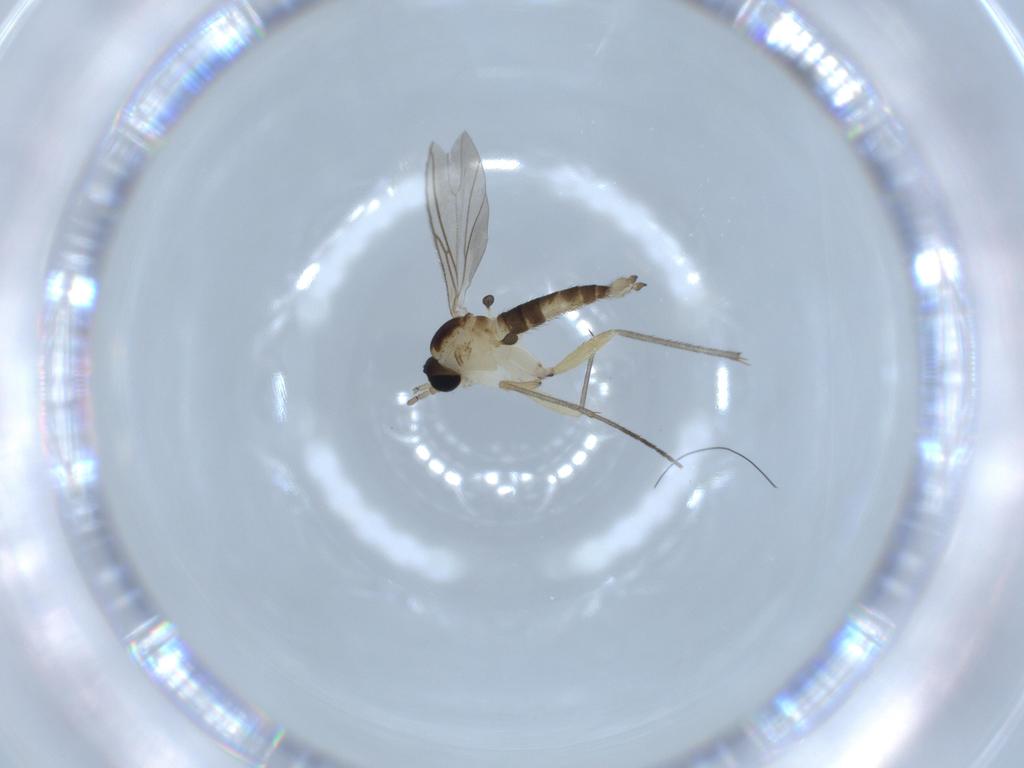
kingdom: Animalia
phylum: Arthropoda
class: Insecta
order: Diptera
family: Sciaridae
